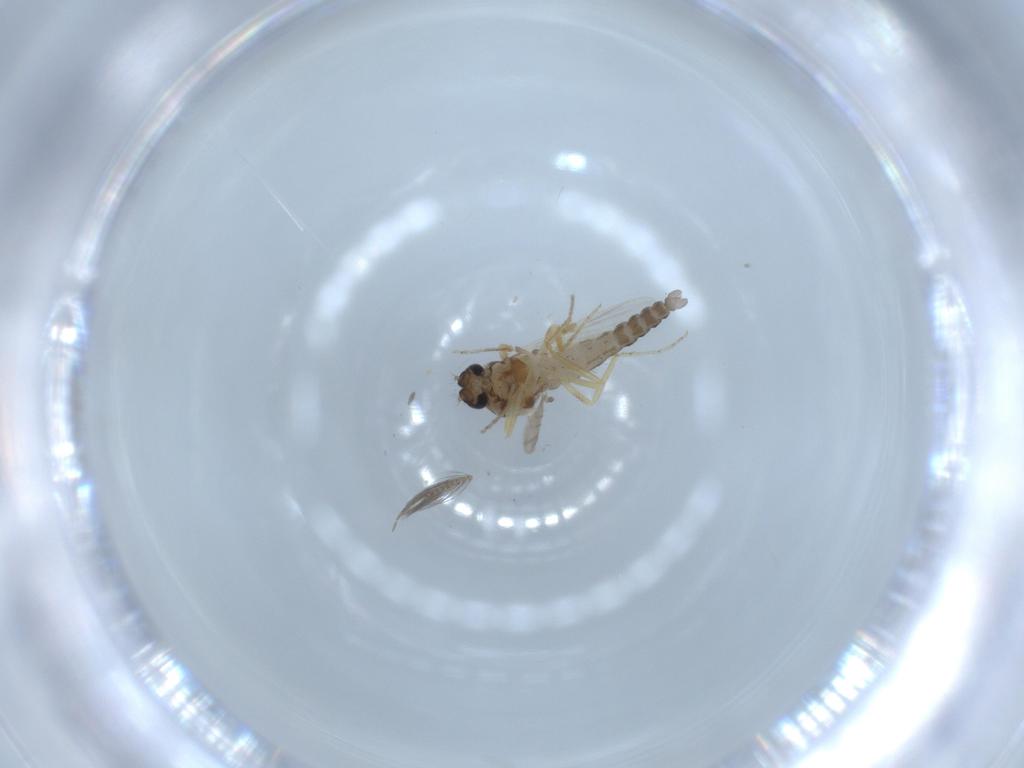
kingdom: Animalia
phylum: Arthropoda
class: Insecta
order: Diptera
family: Ceratopogonidae
